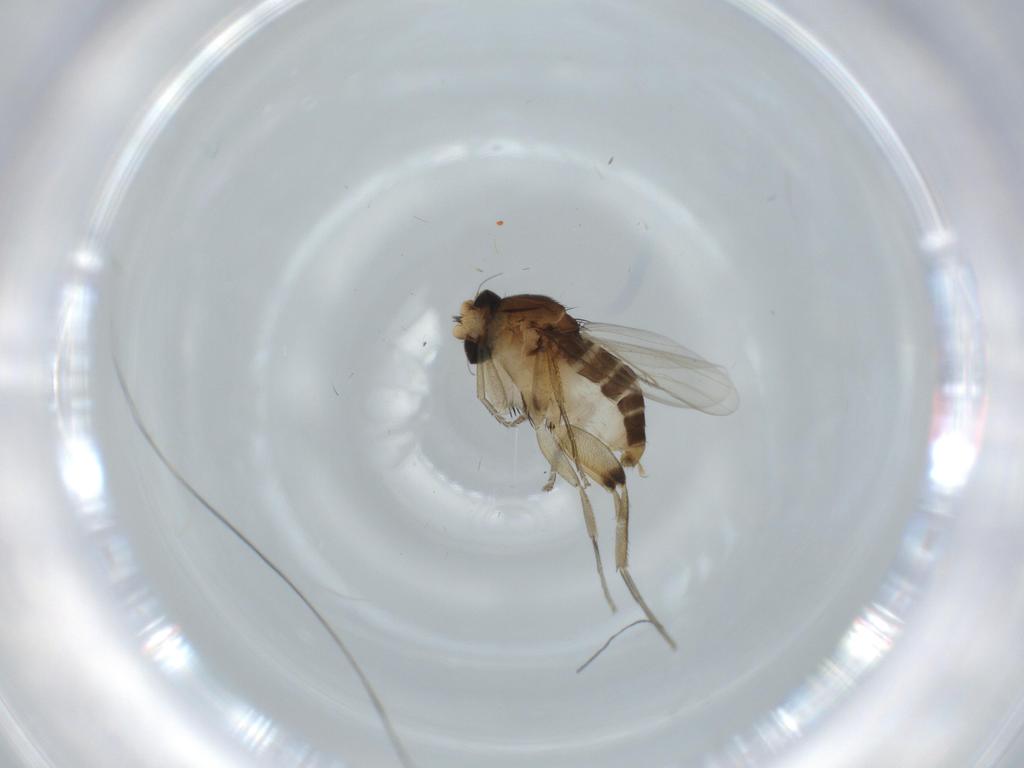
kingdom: Animalia
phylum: Arthropoda
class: Insecta
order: Diptera
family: Phoridae
